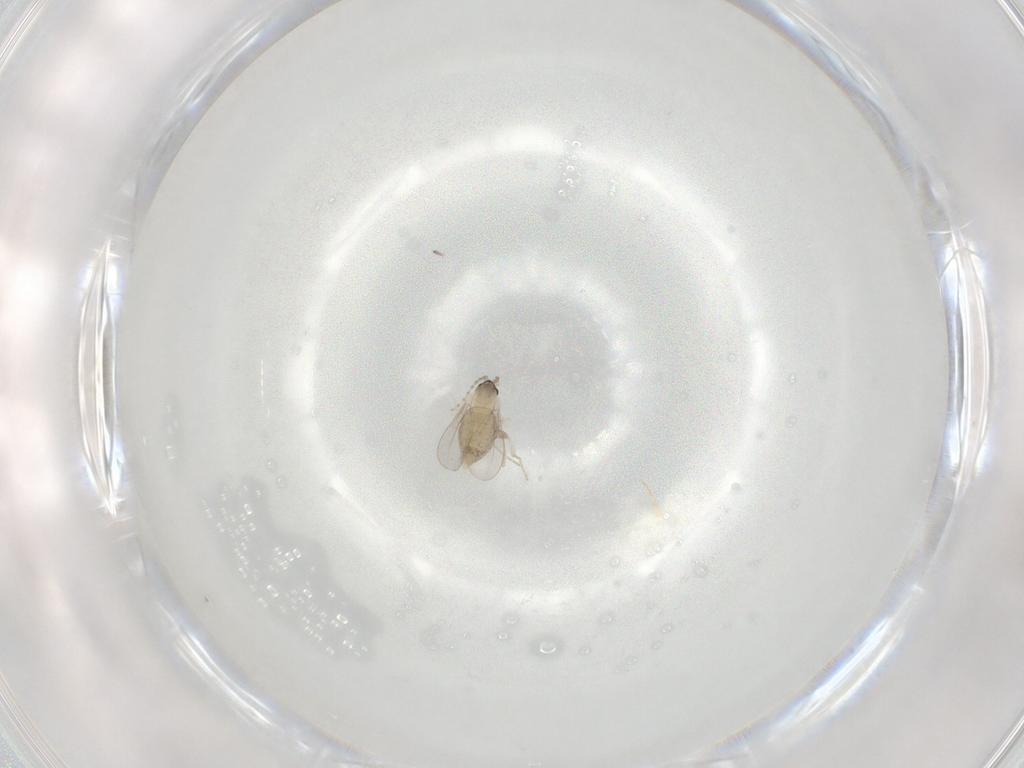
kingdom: Animalia
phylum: Arthropoda
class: Insecta
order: Diptera
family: Cecidomyiidae
